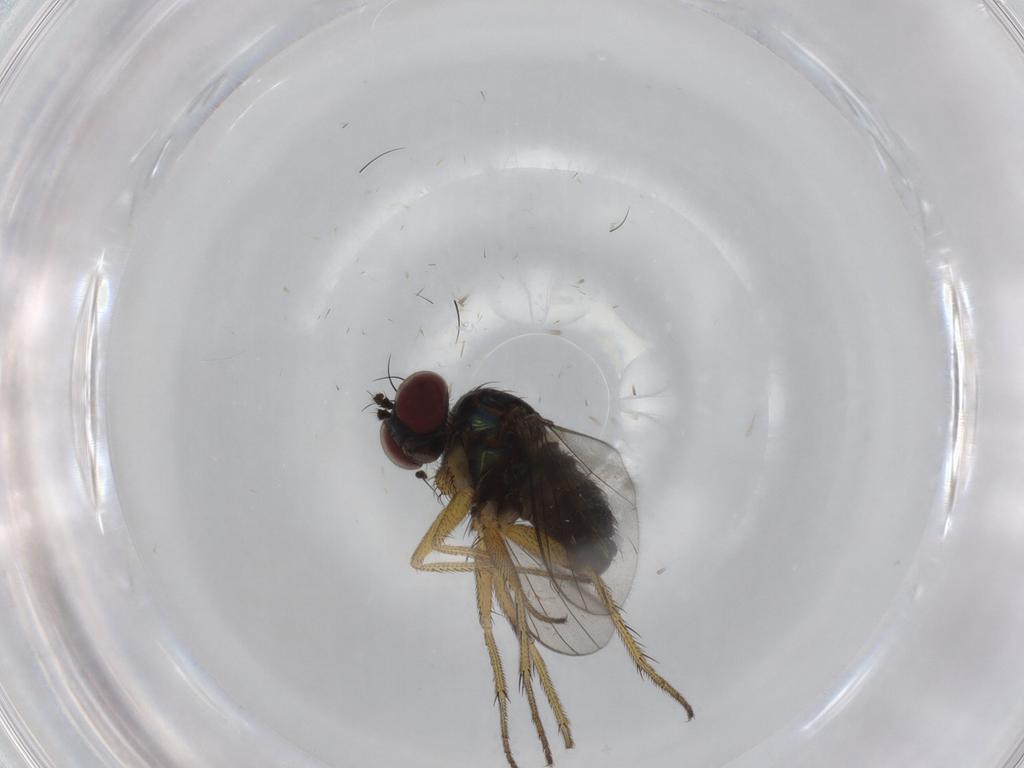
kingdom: Animalia
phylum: Arthropoda
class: Insecta
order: Diptera
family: Dolichopodidae
